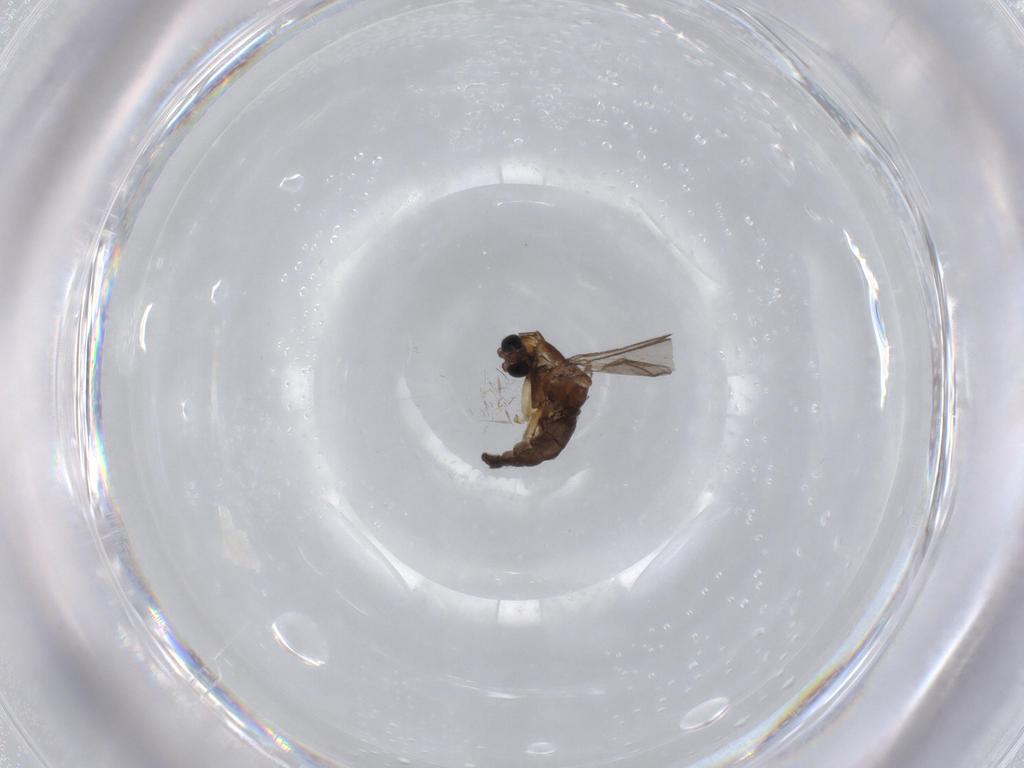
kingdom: Animalia
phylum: Arthropoda
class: Insecta
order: Diptera
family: Sciaridae
